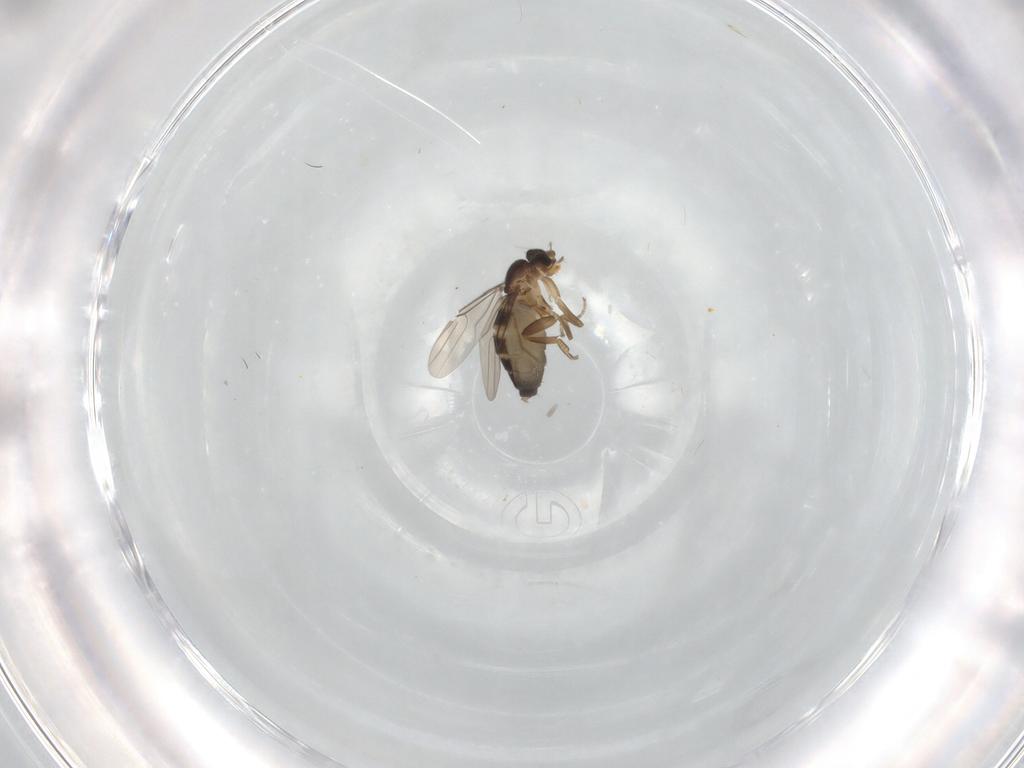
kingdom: Animalia
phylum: Arthropoda
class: Insecta
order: Diptera
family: Phoridae
